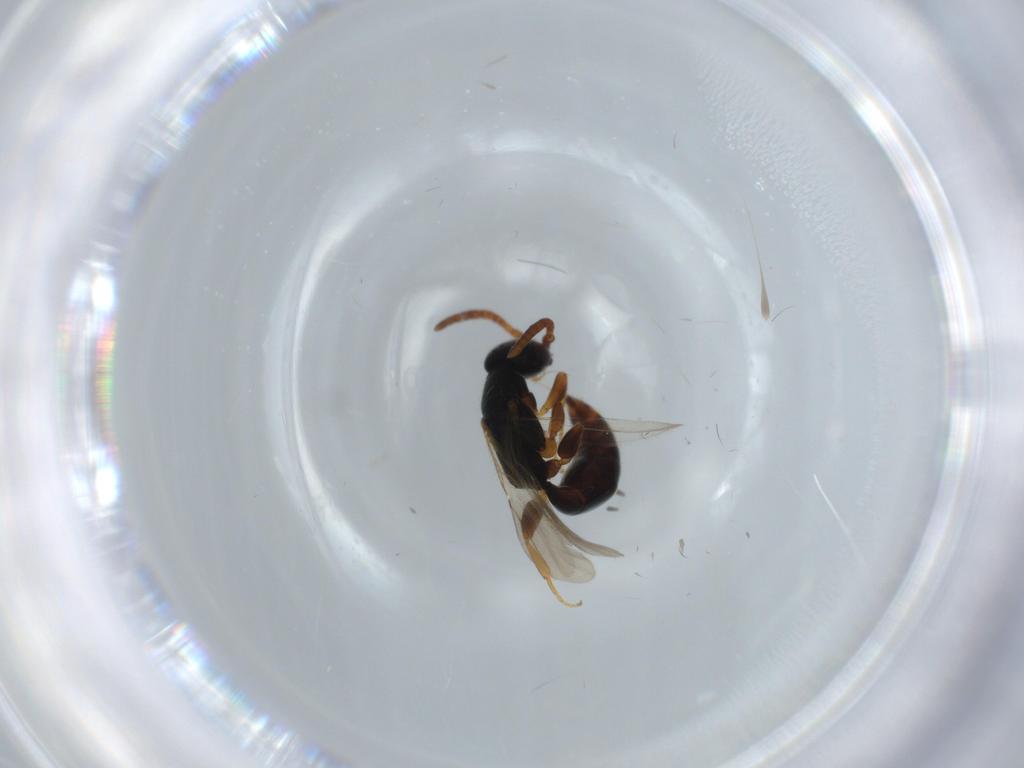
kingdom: Animalia
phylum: Arthropoda
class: Insecta
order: Hymenoptera
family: Bethylidae
